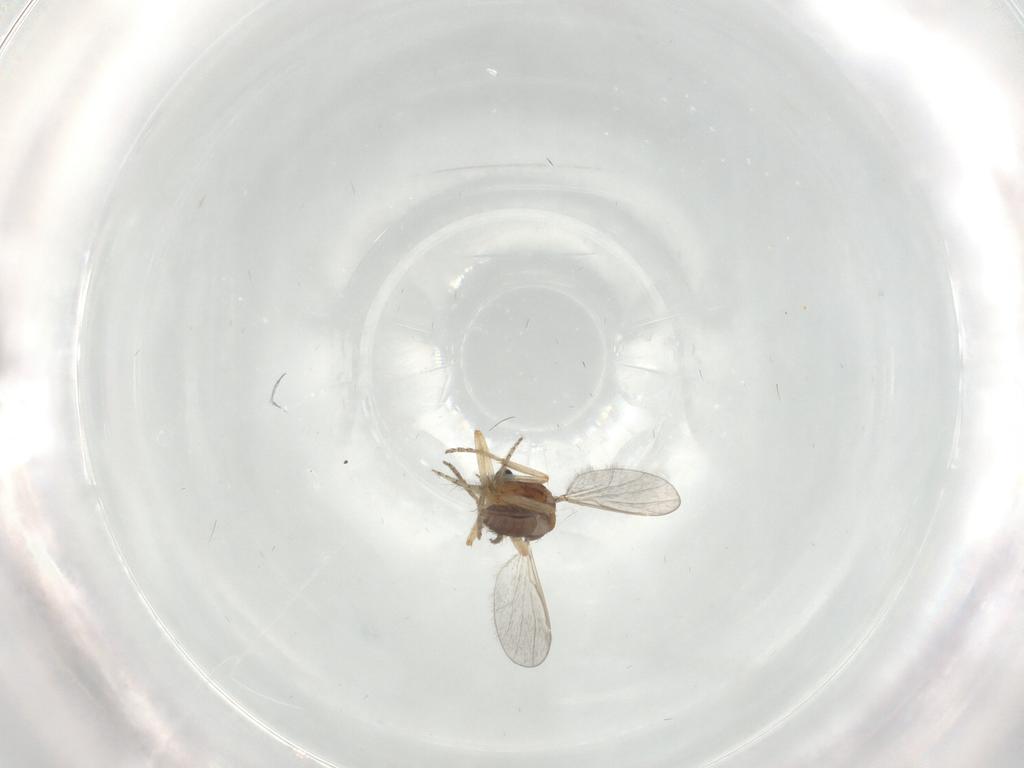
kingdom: Animalia
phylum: Arthropoda
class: Insecta
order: Diptera
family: Ceratopogonidae
